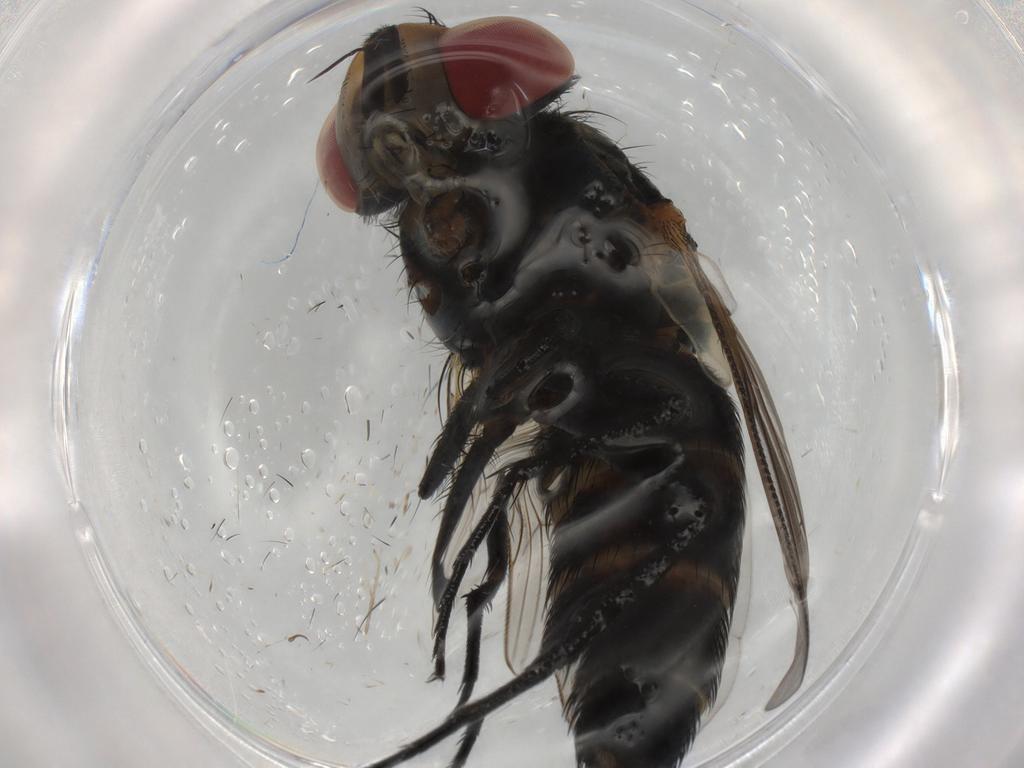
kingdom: Animalia
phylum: Arthropoda
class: Insecta
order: Diptera
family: Anthomyiidae
